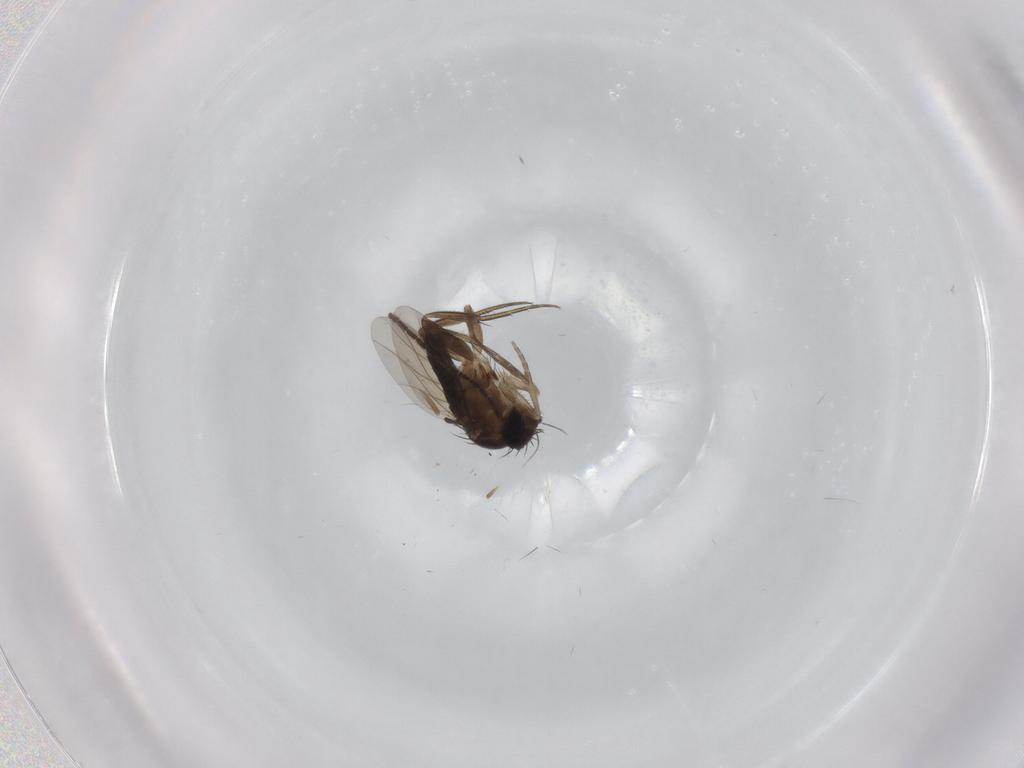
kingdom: Animalia
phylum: Arthropoda
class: Insecta
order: Diptera
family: Sciaridae
